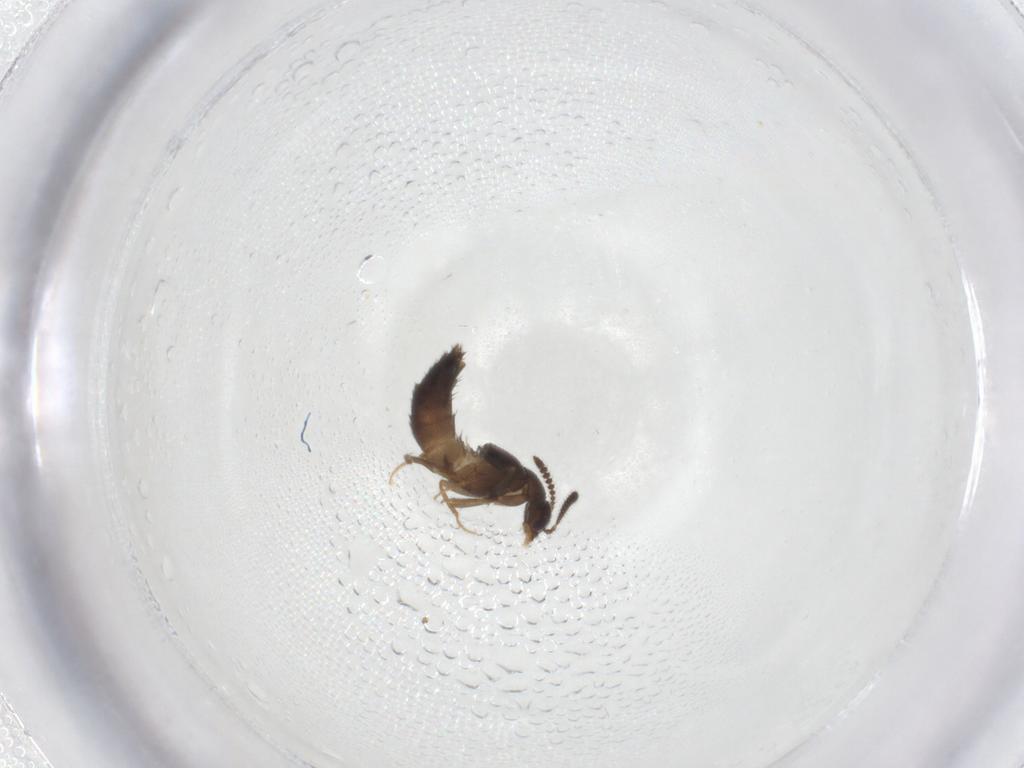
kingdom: Animalia
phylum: Arthropoda
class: Insecta
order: Coleoptera
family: Staphylinidae
